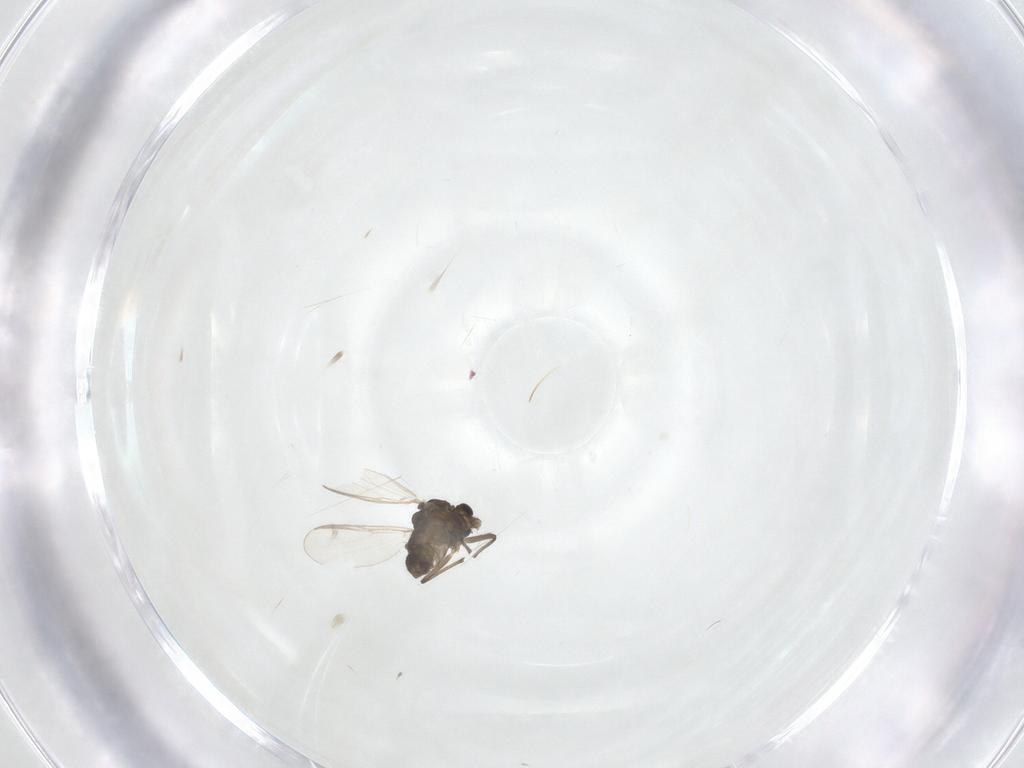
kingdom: Animalia
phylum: Arthropoda
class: Insecta
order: Diptera
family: Chironomidae
